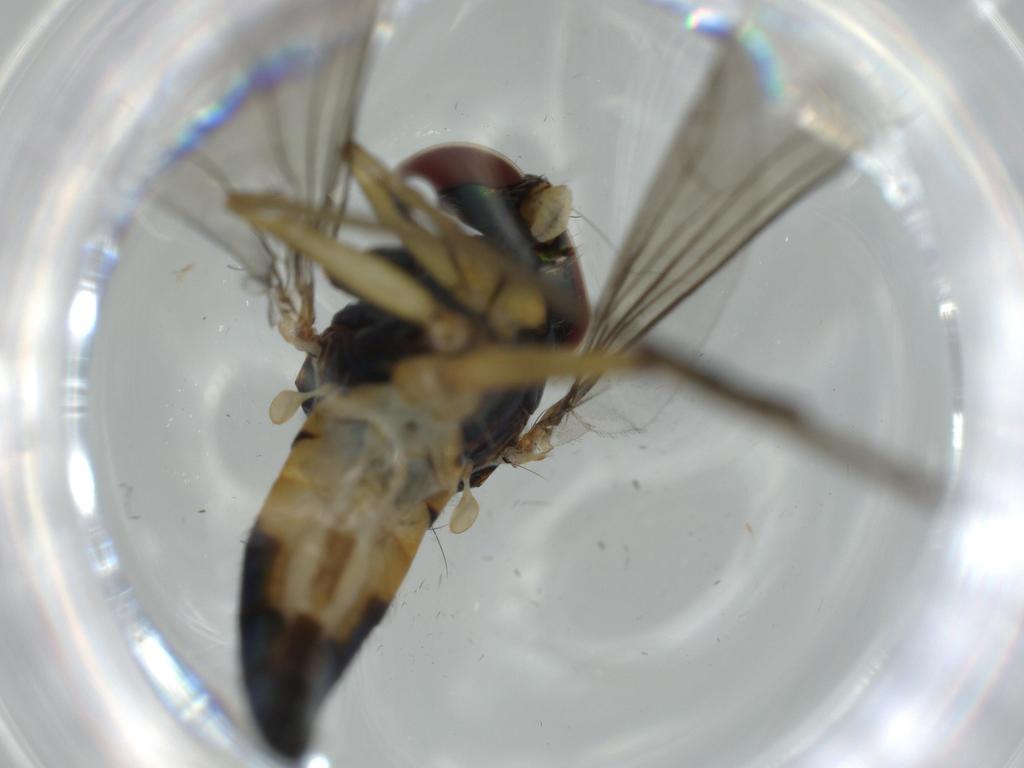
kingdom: Animalia
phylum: Arthropoda
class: Insecta
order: Diptera
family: Dolichopodidae
